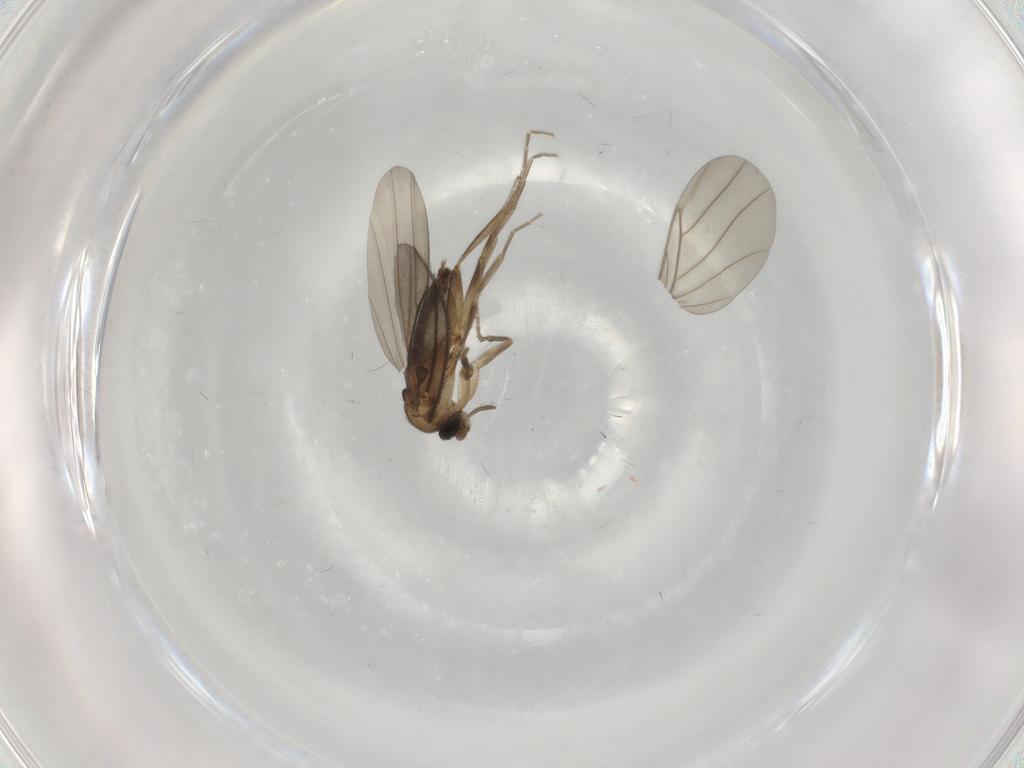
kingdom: Animalia
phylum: Arthropoda
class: Insecta
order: Diptera
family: Phoridae
